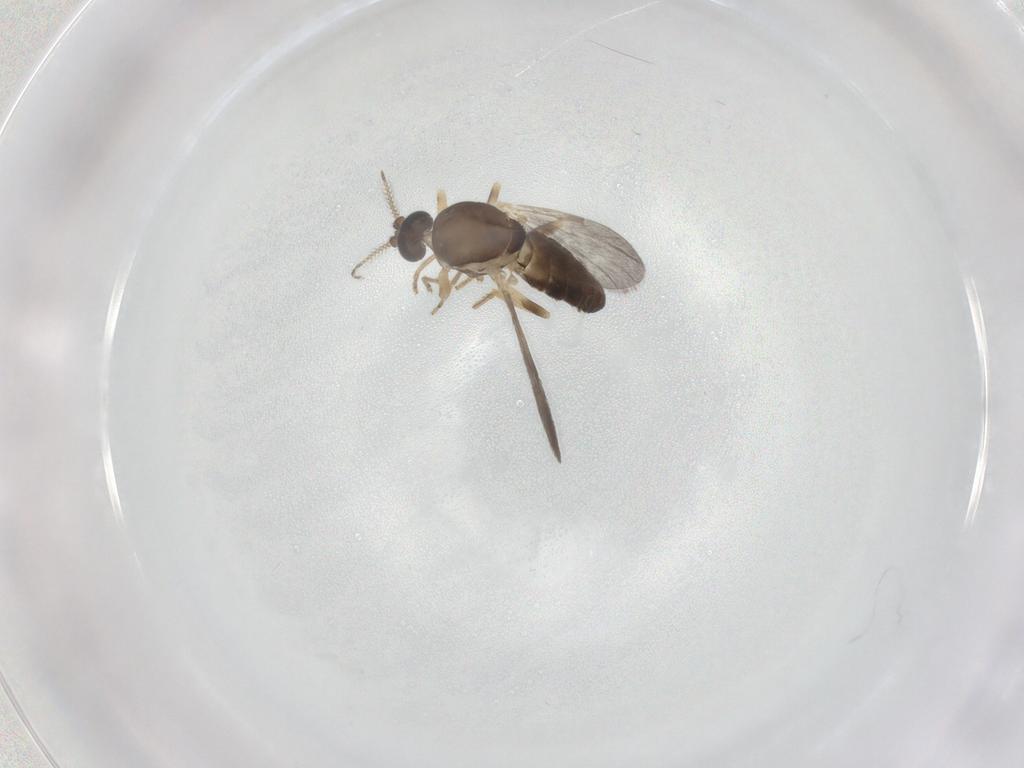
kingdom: Animalia
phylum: Arthropoda
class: Insecta
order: Diptera
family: Ceratopogonidae
